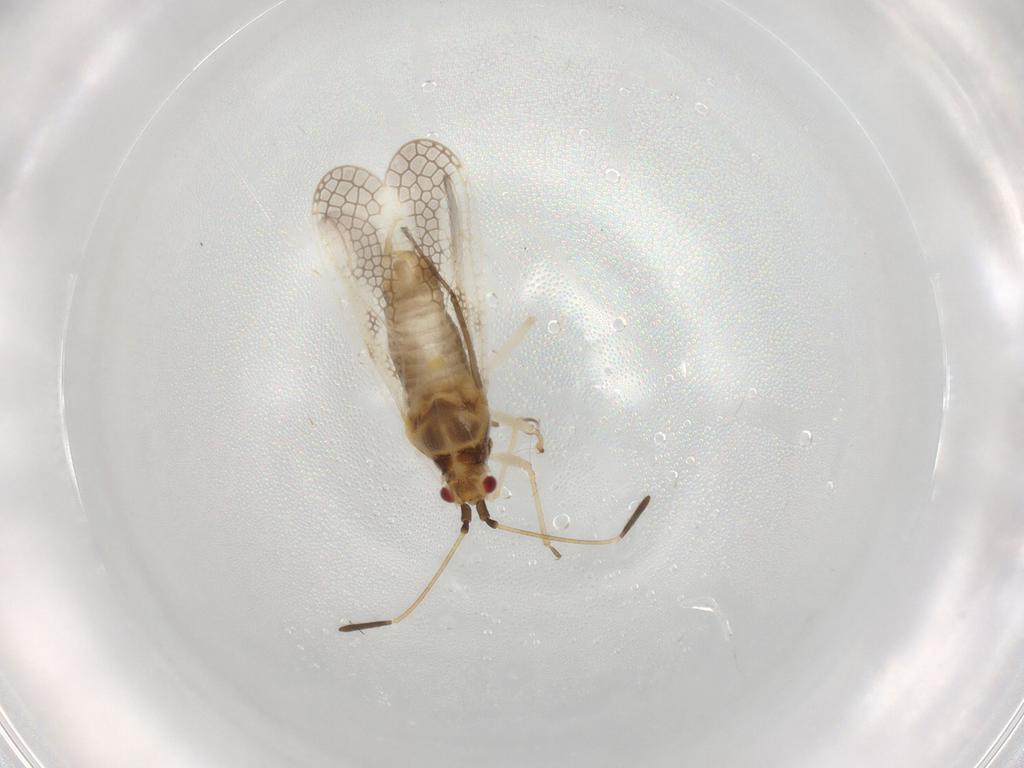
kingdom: Animalia
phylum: Arthropoda
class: Insecta
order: Hemiptera
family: Tingidae
